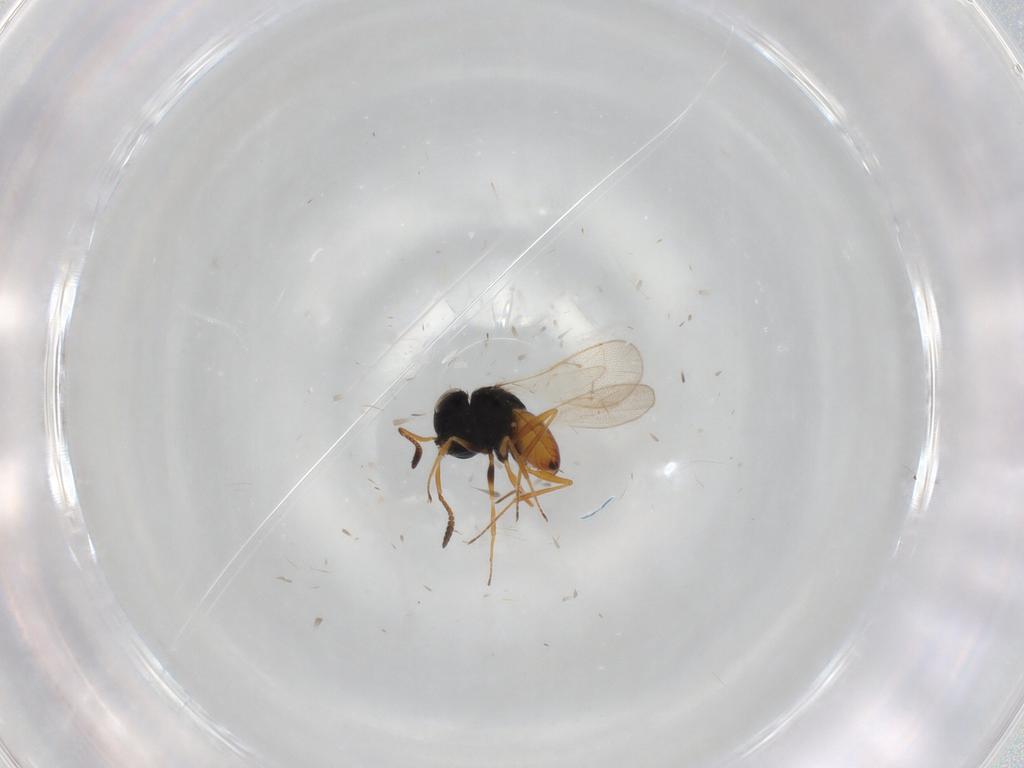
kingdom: Animalia
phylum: Arthropoda
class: Insecta
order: Hymenoptera
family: Scelionidae
